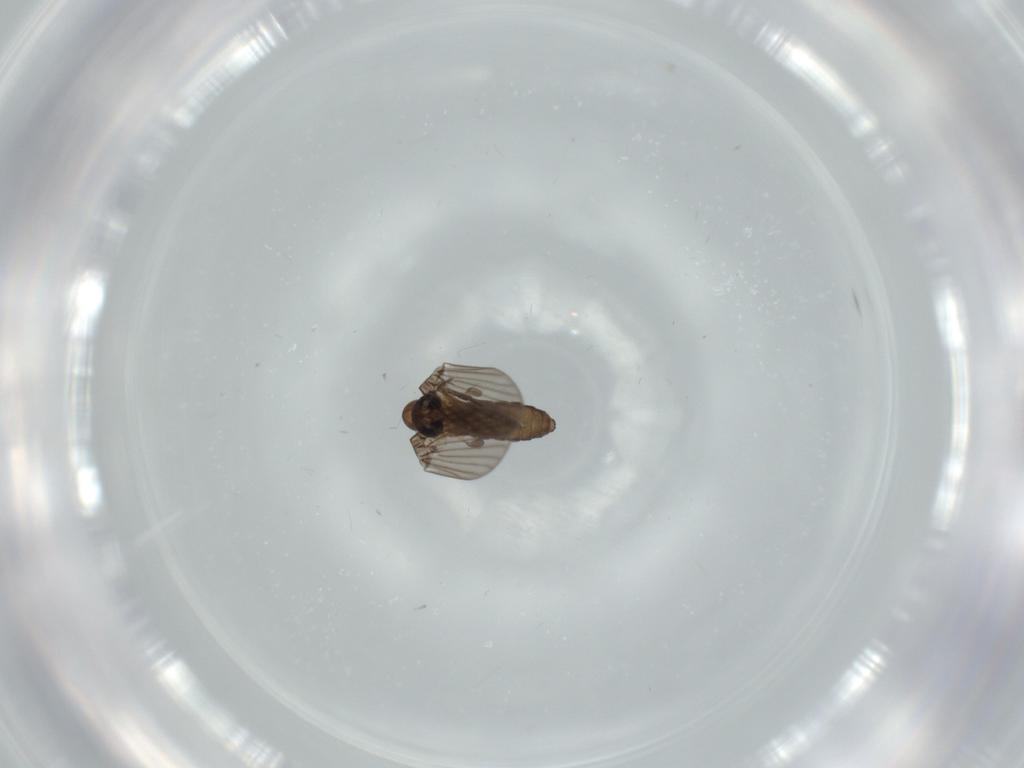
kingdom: Animalia
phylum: Arthropoda
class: Insecta
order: Diptera
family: Psychodidae
